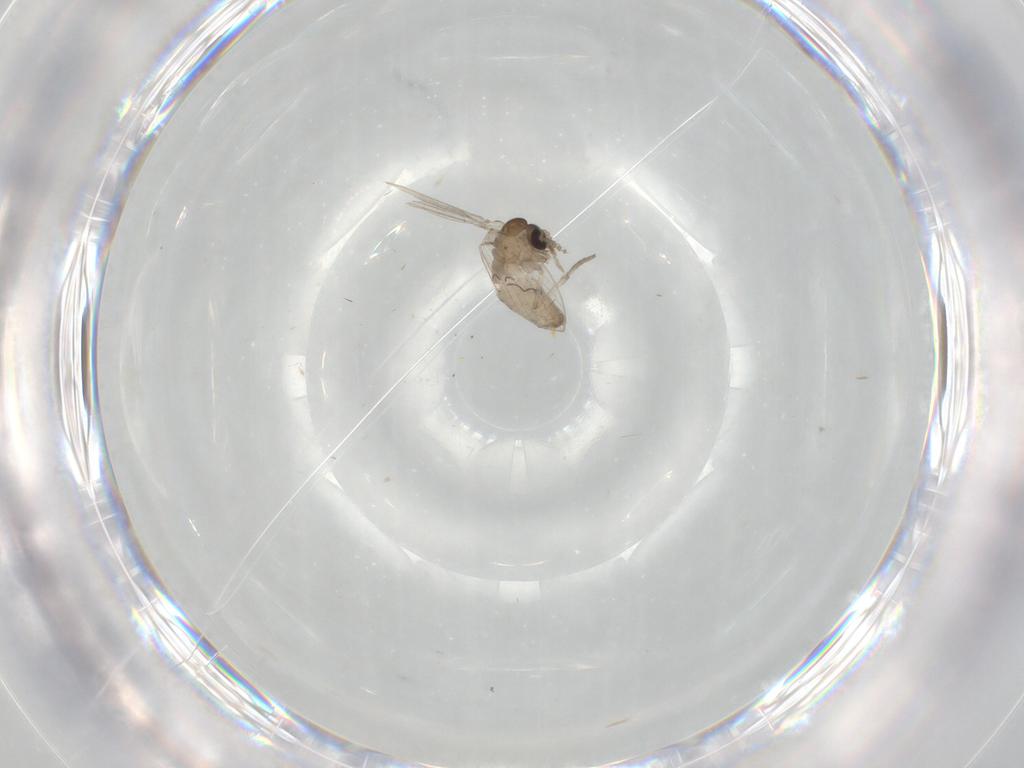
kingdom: Animalia
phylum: Arthropoda
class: Insecta
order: Diptera
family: Psychodidae
